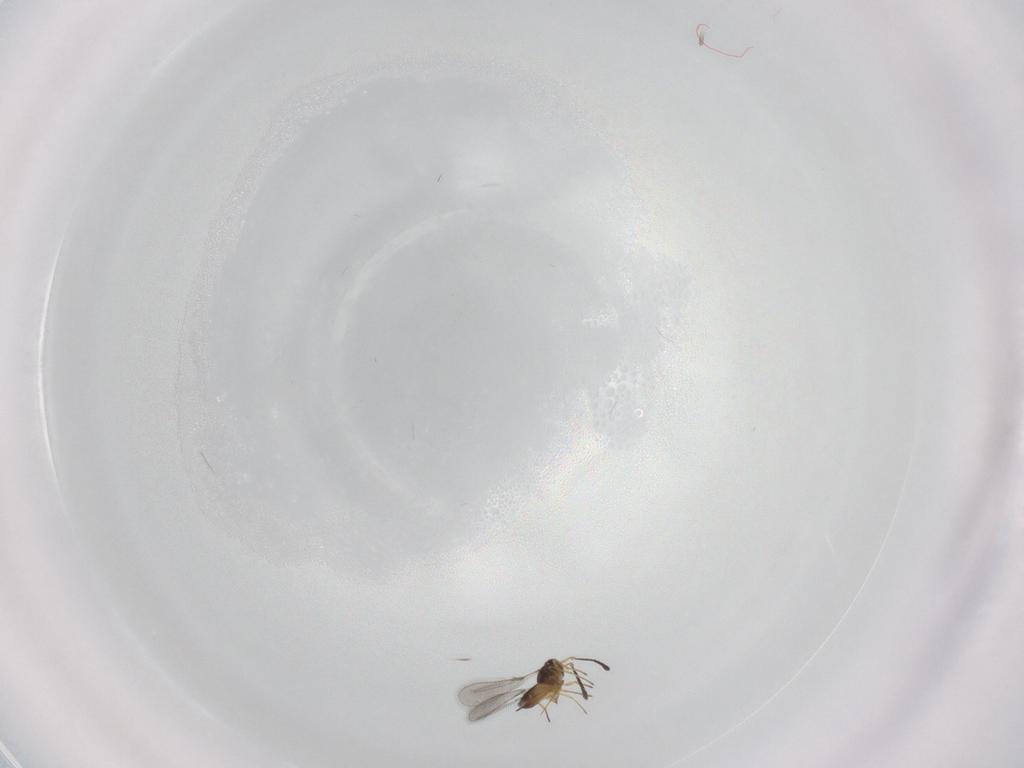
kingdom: Animalia
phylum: Arthropoda
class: Insecta
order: Hymenoptera
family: Mymaridae
